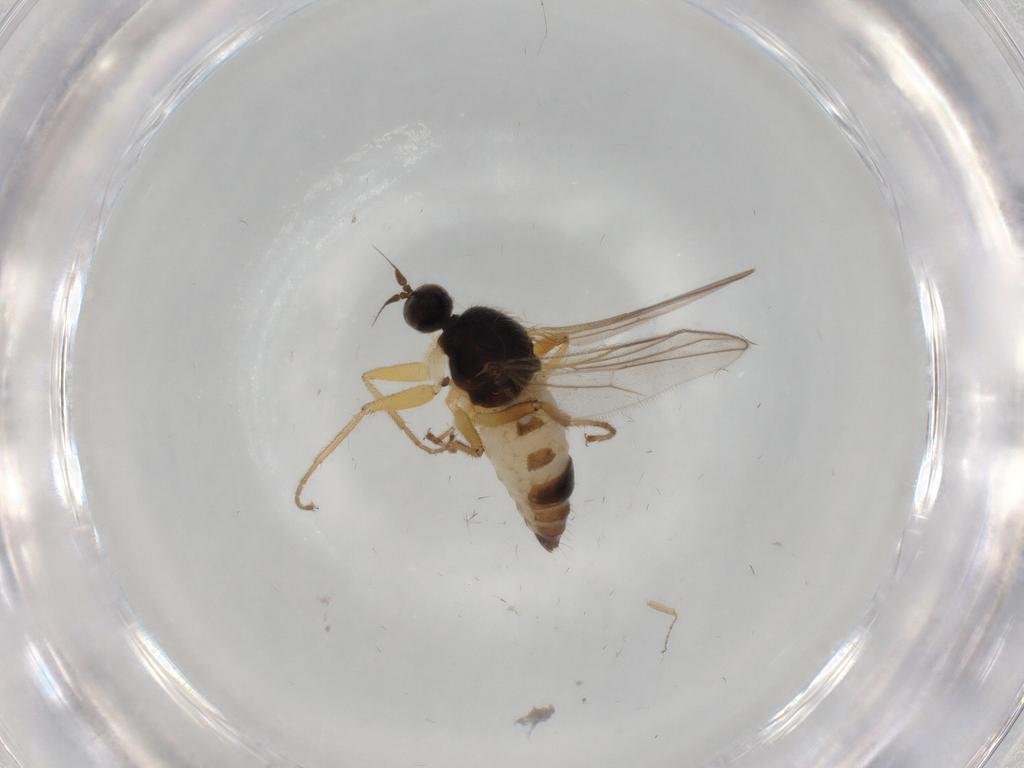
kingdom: Animalia
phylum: Arthropoda
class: Insecta
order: Diptera
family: Hybotidae
